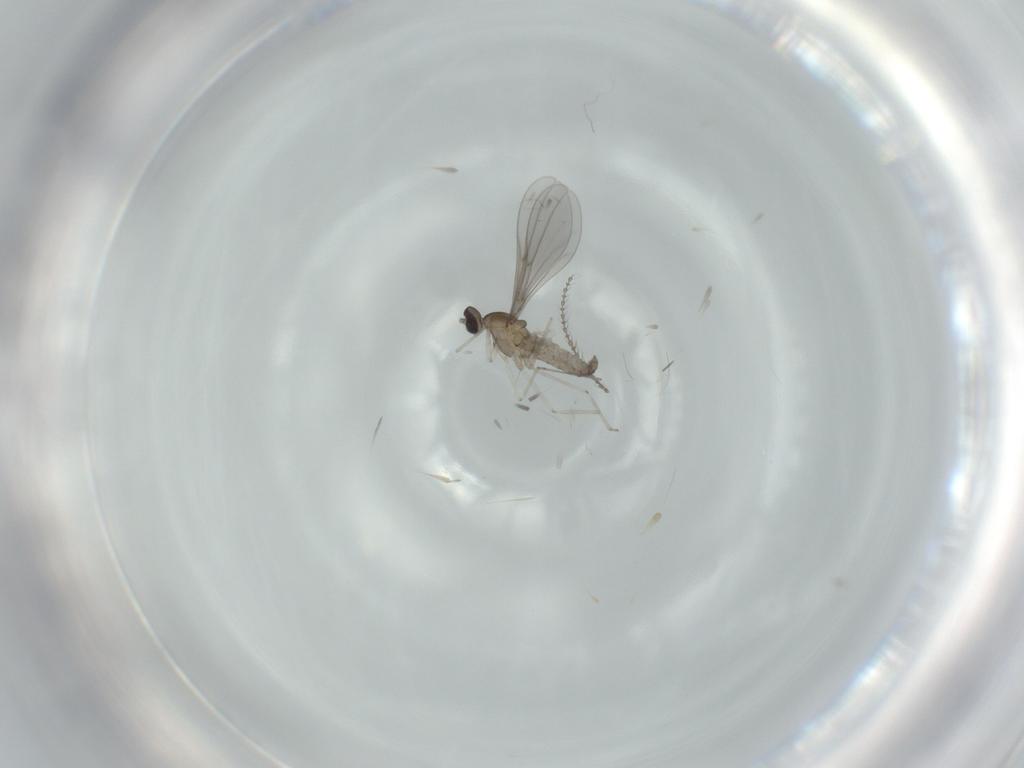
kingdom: Animalia
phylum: Arthropoda
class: Insecta
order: Diptera
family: Cecidomyiidae
